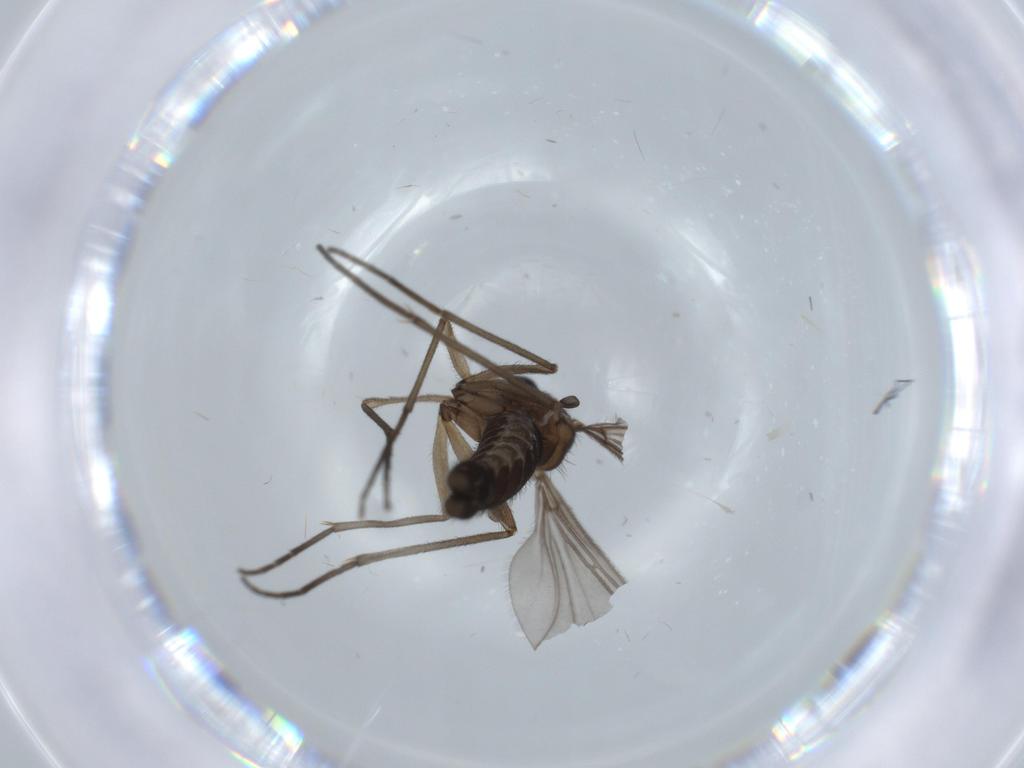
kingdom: Animalia
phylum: Arthropoda
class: Insecta
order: Diptera
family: Sciaridae
